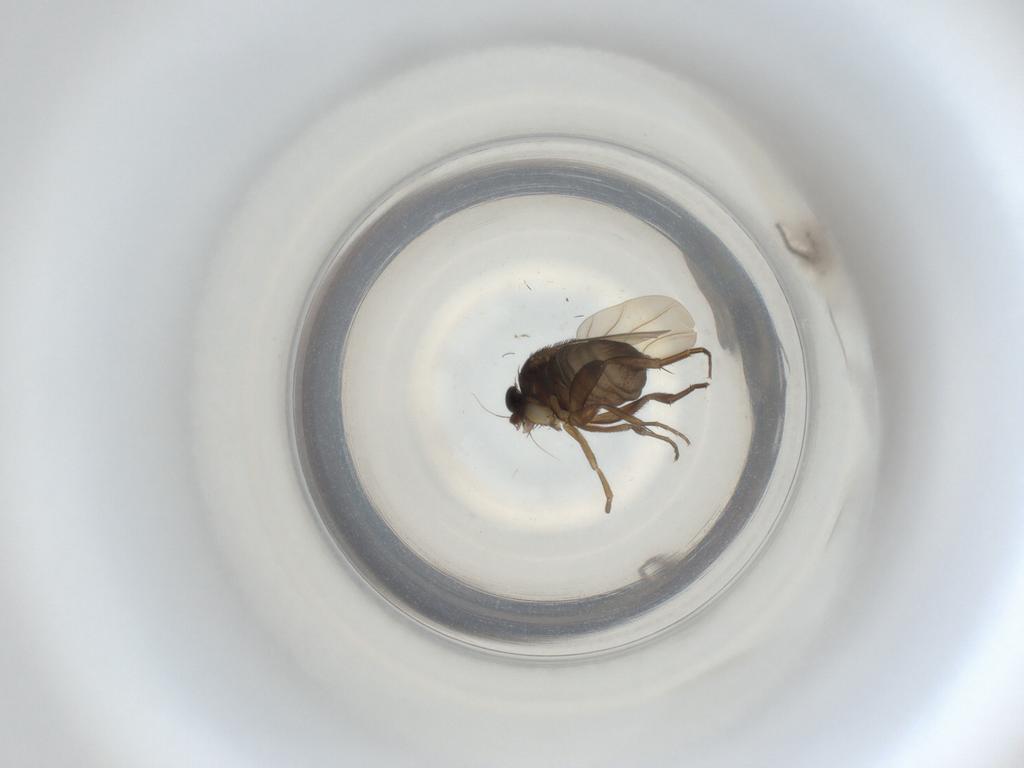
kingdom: Animalia
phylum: Arthropoda
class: Insecta
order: Diptera
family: Phoridae
